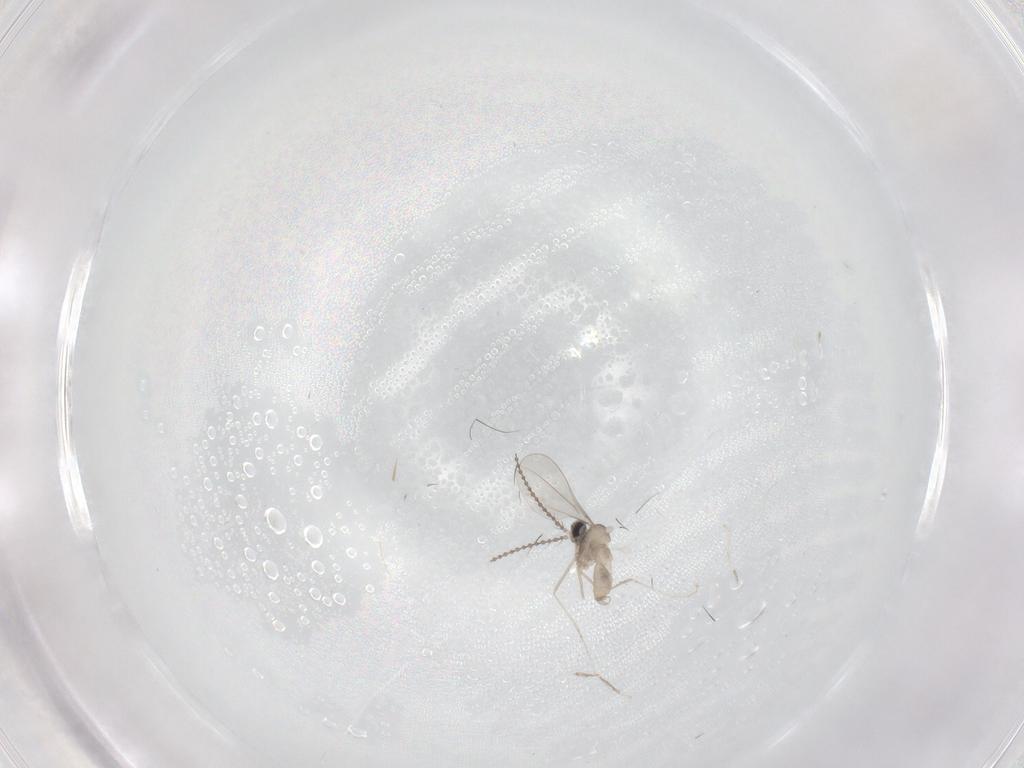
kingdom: Animalia
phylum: Arthropoda
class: Insecta
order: Diptera
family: Cecidomyiidae
